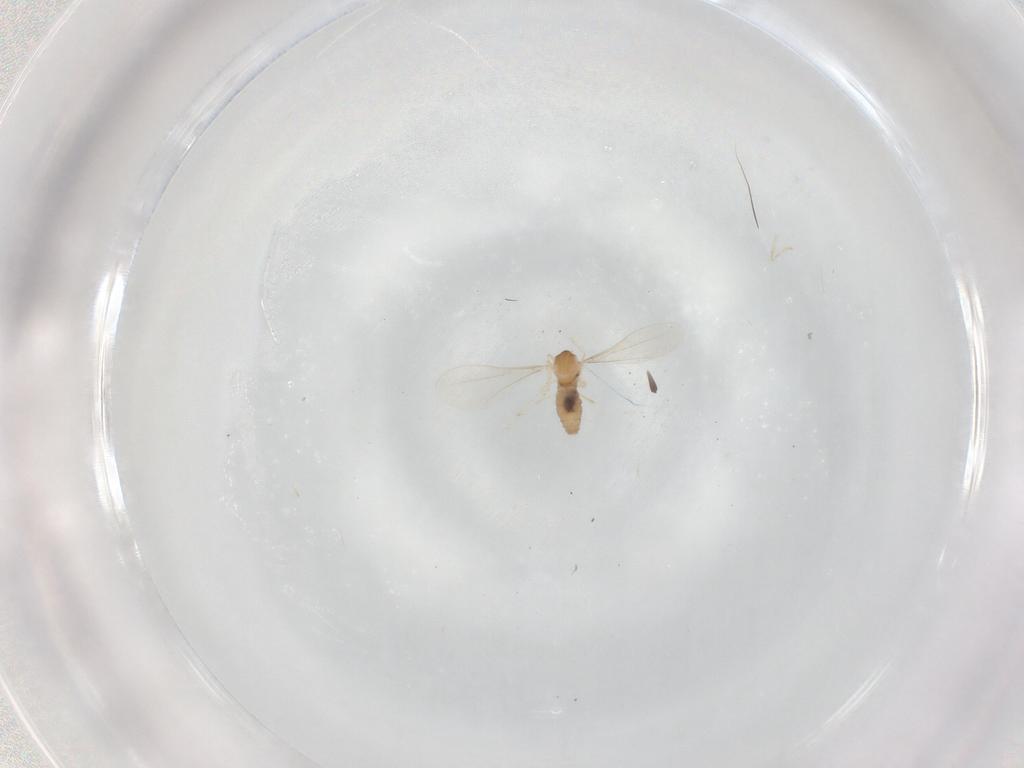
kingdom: Animalia
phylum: Arthropoda
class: Insecta
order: Diptera
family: Cecidomyiidae
